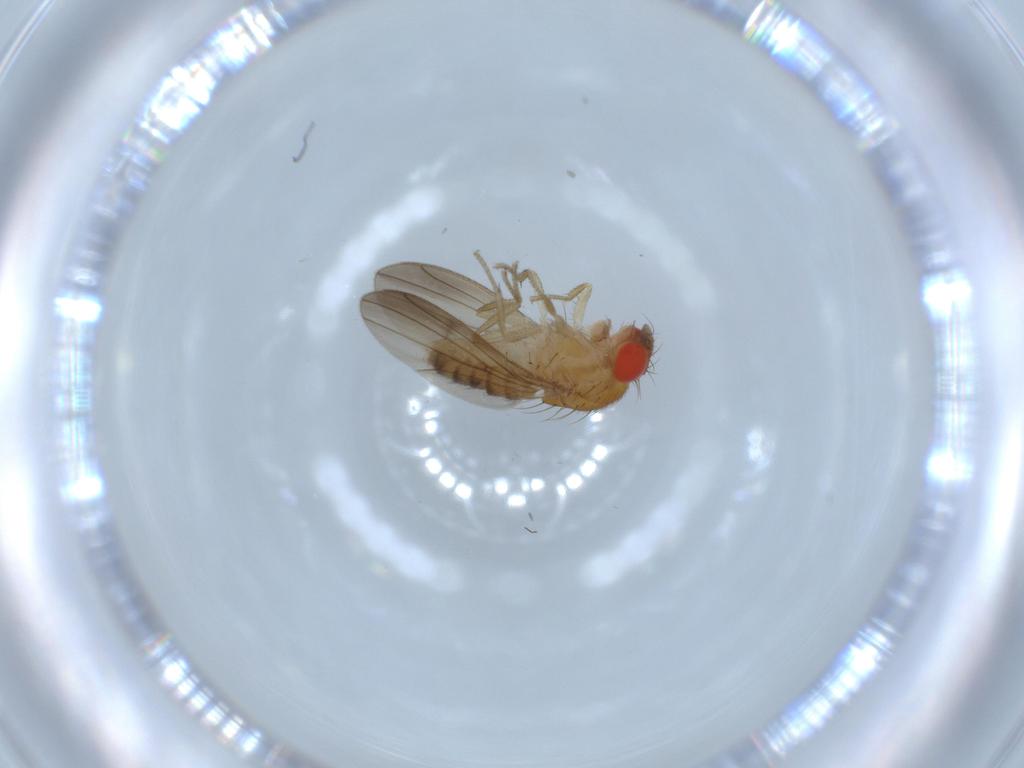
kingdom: Animalia
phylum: Arthropoda
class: Insecta
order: Diptera
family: Drosophilidae
